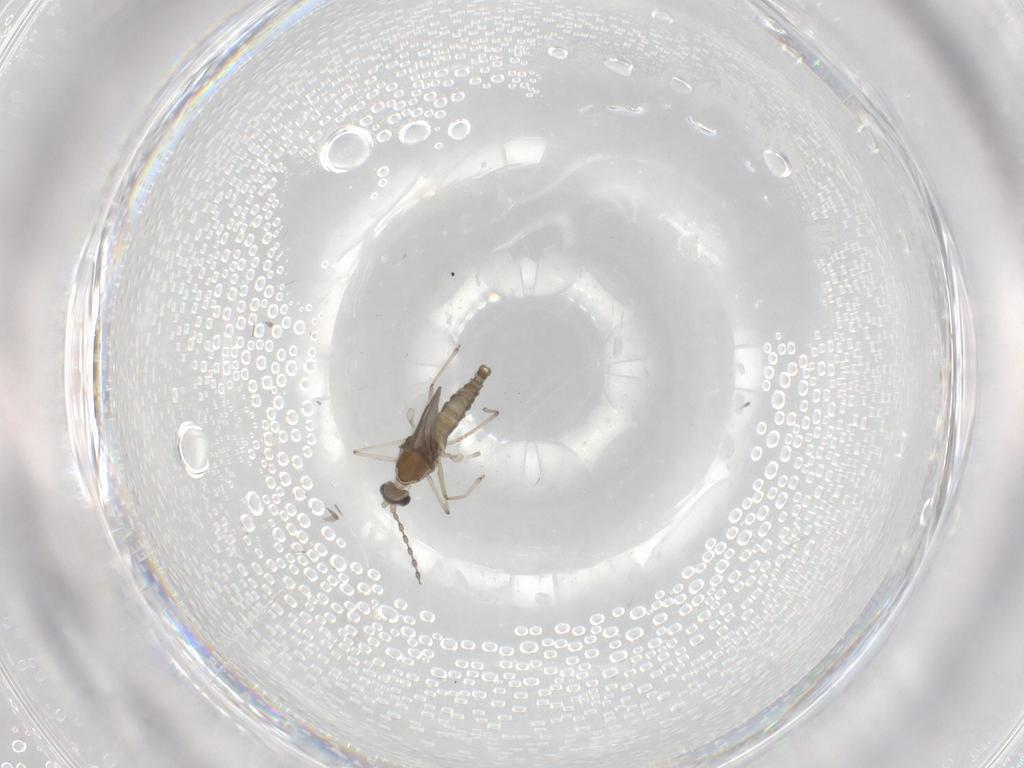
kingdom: Animalia
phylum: Arthropoda
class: Insecta
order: Diptera
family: Cecidomyiidae
